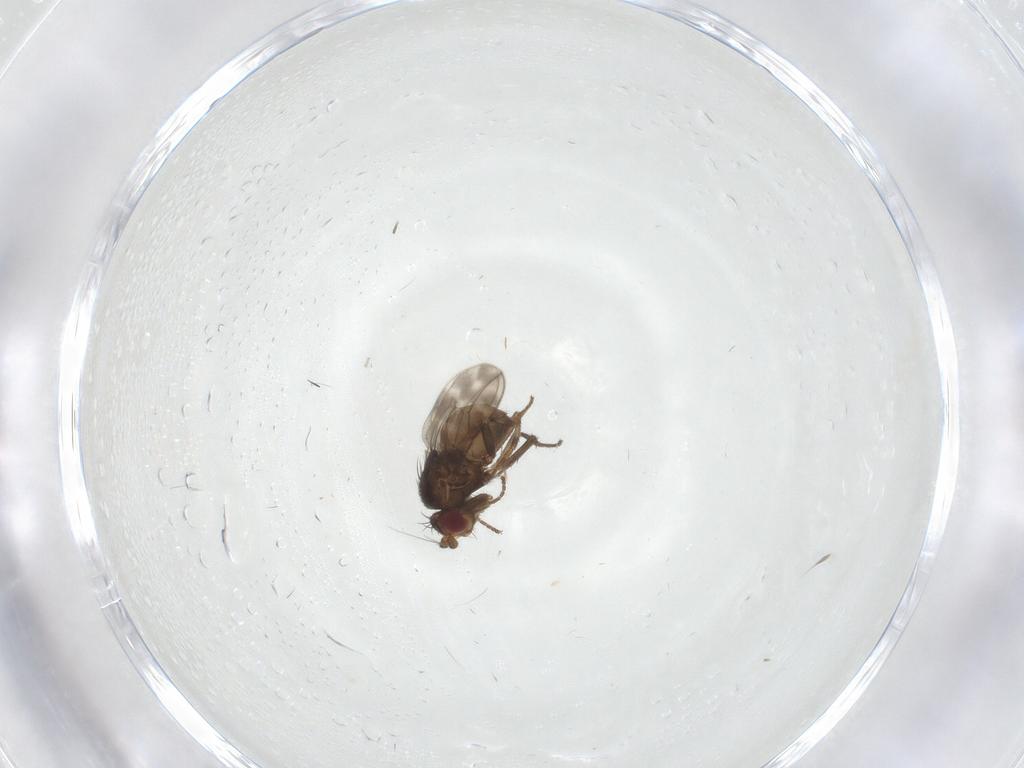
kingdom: Animalia
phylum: Arthropoda
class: Insecta
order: Diptera
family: Sphaeroceridae
